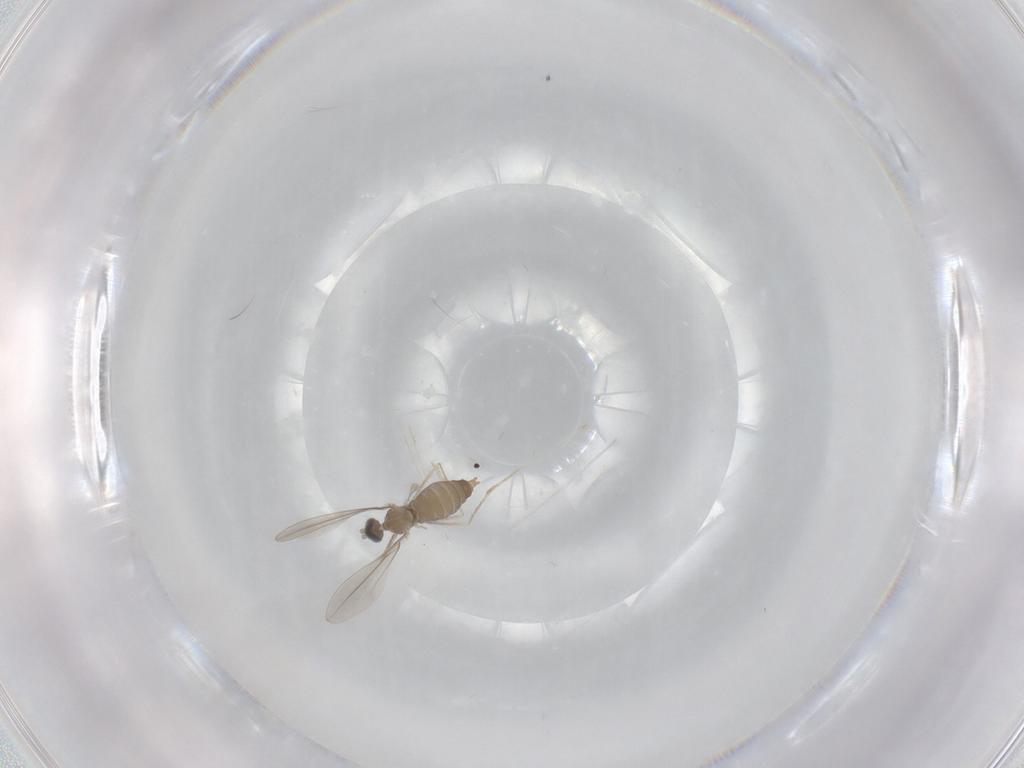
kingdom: Animalia
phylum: Arthropoda
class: Insecta
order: Diptera
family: Cecidomyiidae
